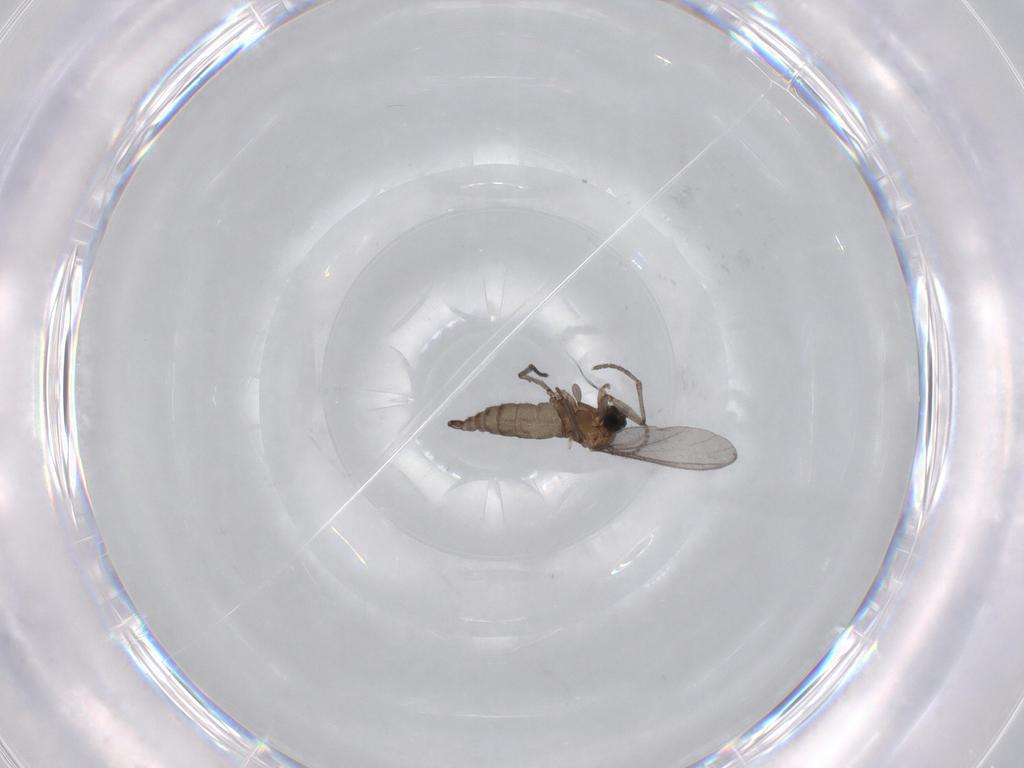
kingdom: Animalia
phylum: Arthropoda
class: Insecta
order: Diptera
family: Sciaridae
